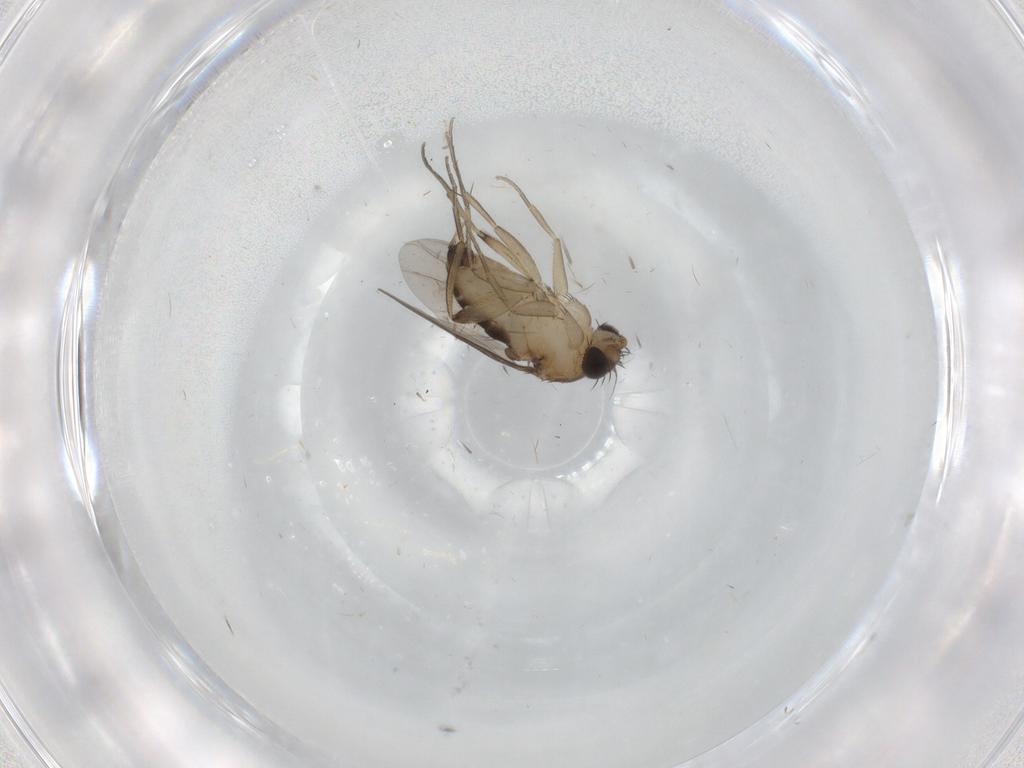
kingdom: Animalia
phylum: Arthropoda
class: Insecta
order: Diptera
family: Phoridae
